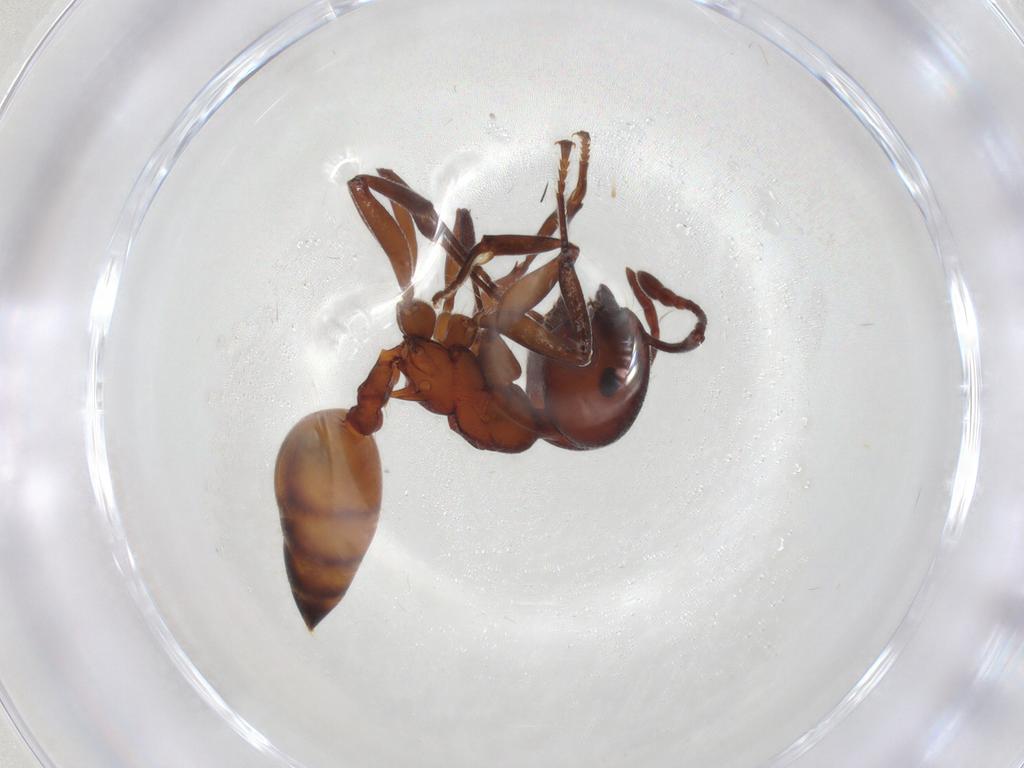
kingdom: Animalia
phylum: Arthropoda
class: Insecta
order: Hymenoptera
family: Formicidae
